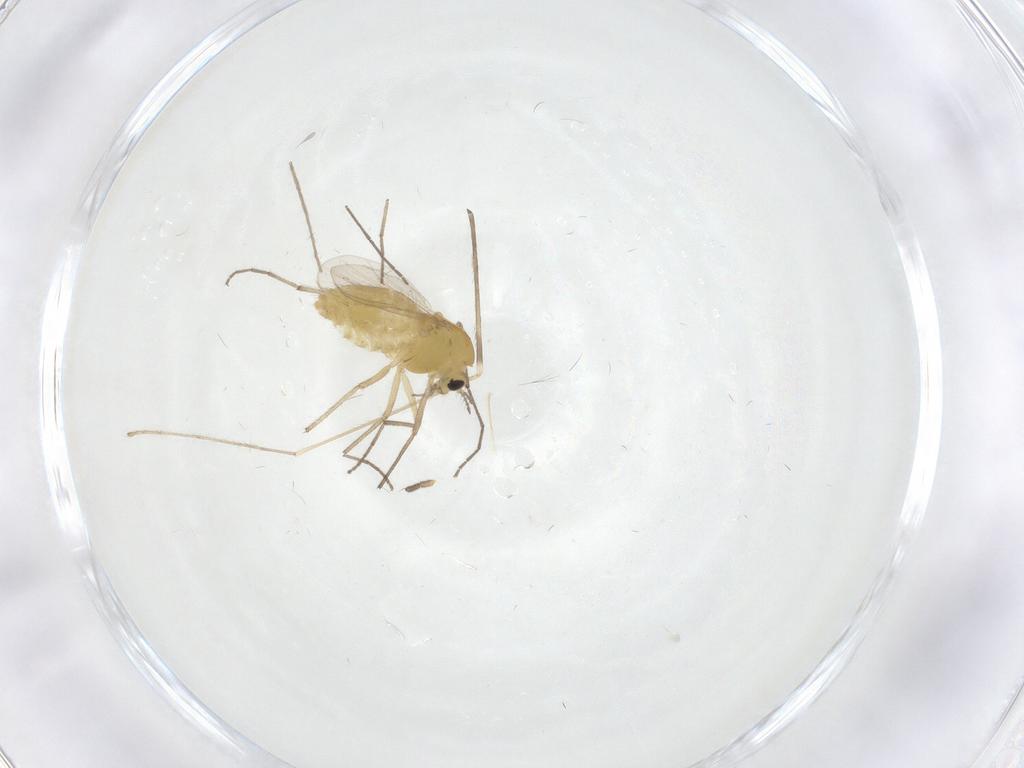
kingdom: Animalia
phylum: Arthropoda
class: Insecta
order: Diptera
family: Chironomidae
